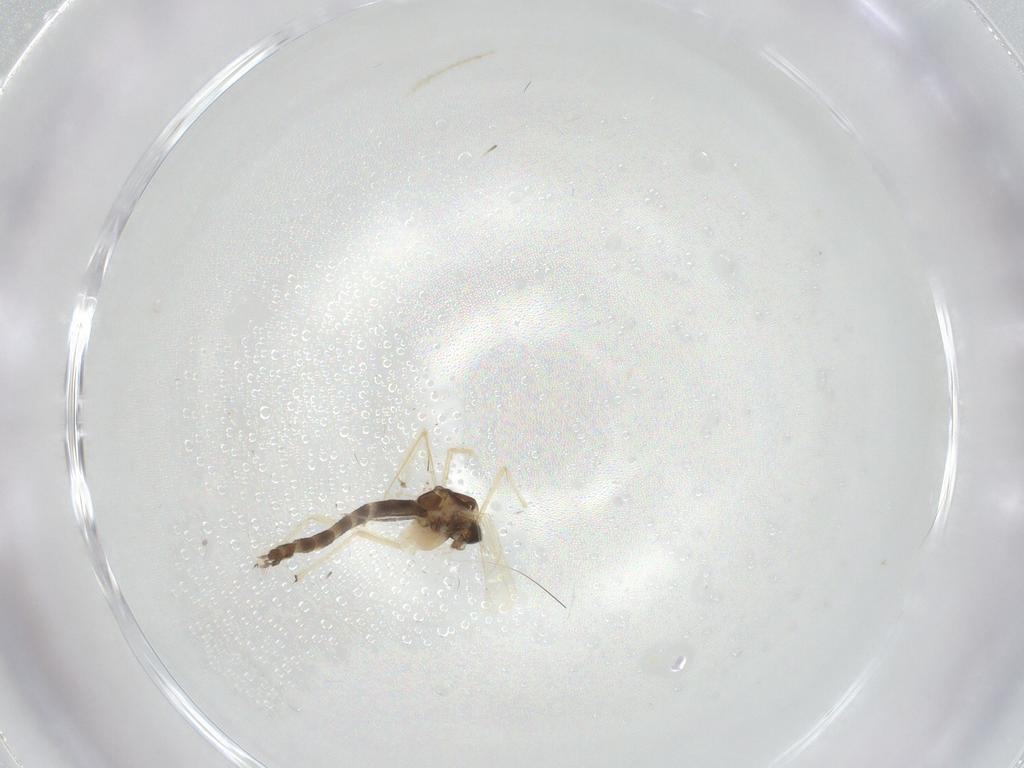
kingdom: Animalia
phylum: Arthropoda
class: Insecta
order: Diptera
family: Chironomidae
